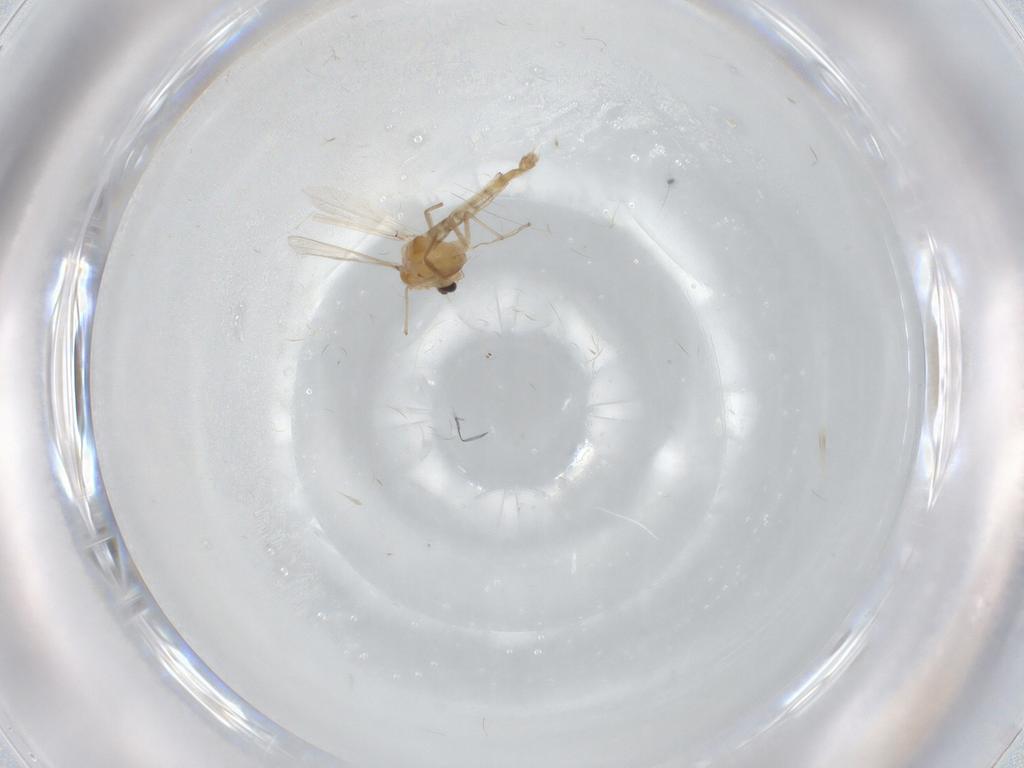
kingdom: Animalia
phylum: Arthropoda
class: Insecta
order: Diptera
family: Chironomidae
